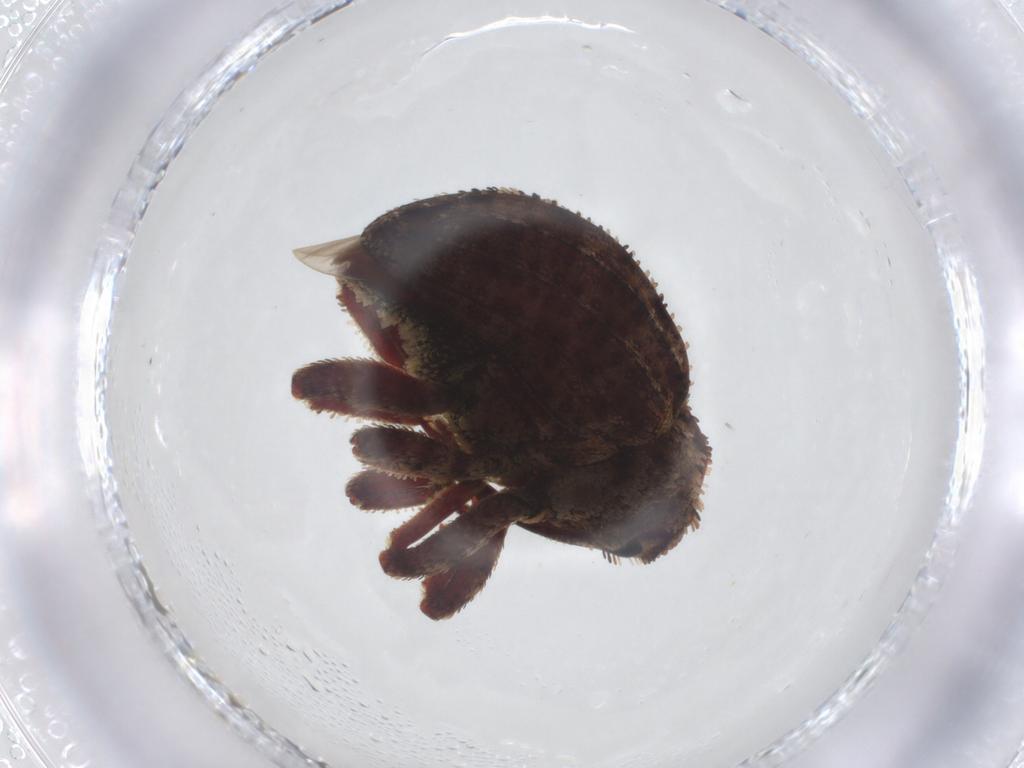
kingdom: Animalia
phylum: Arthropoda
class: Insecta
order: Coleoptera
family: Curculionidae
